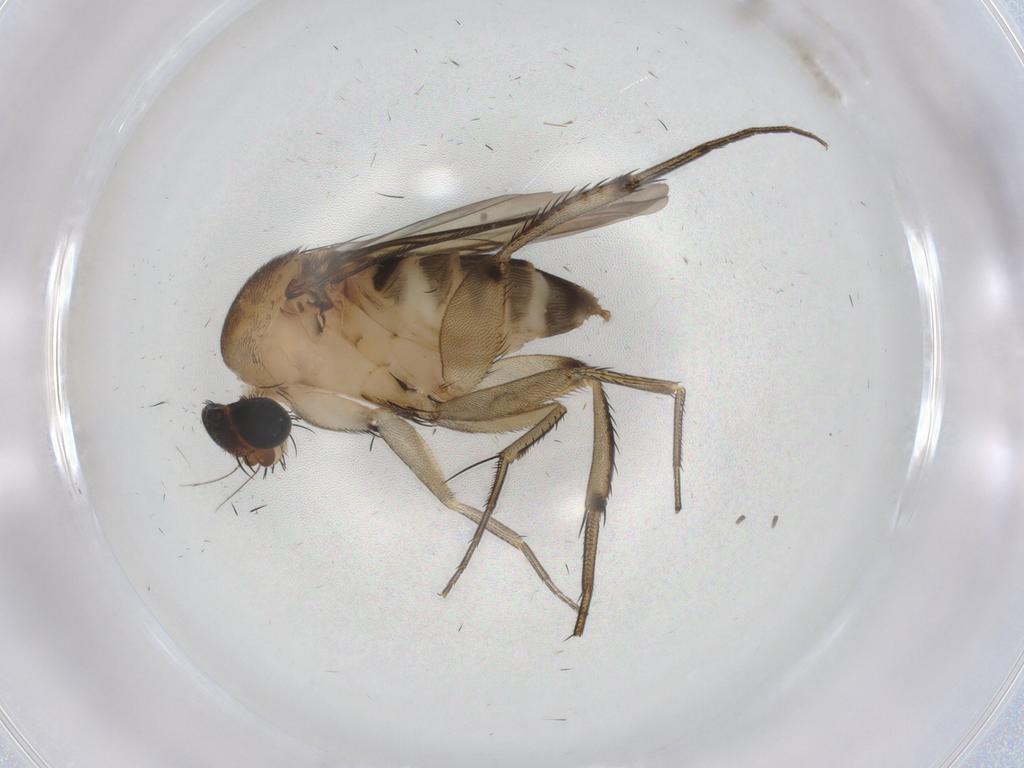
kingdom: Animalia
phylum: Arthropoda
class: Insecta
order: Diptera
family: Phoridae
